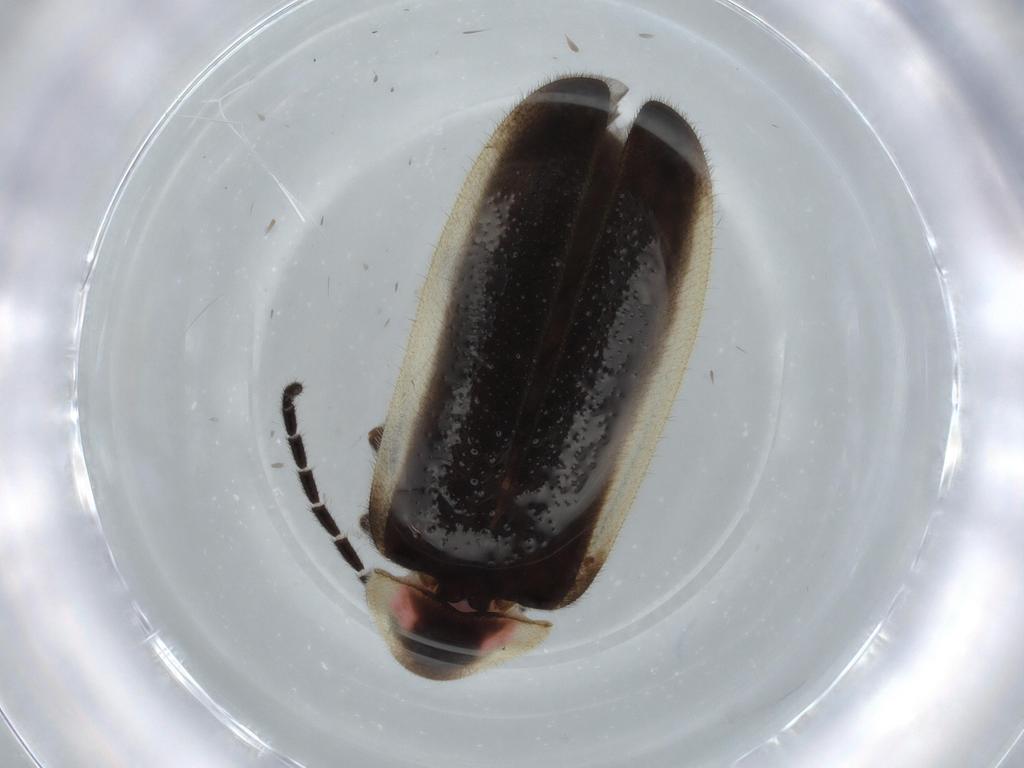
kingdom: Animalia
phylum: Arthropoda
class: Insecta
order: Coleoptera
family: Lampyridae
